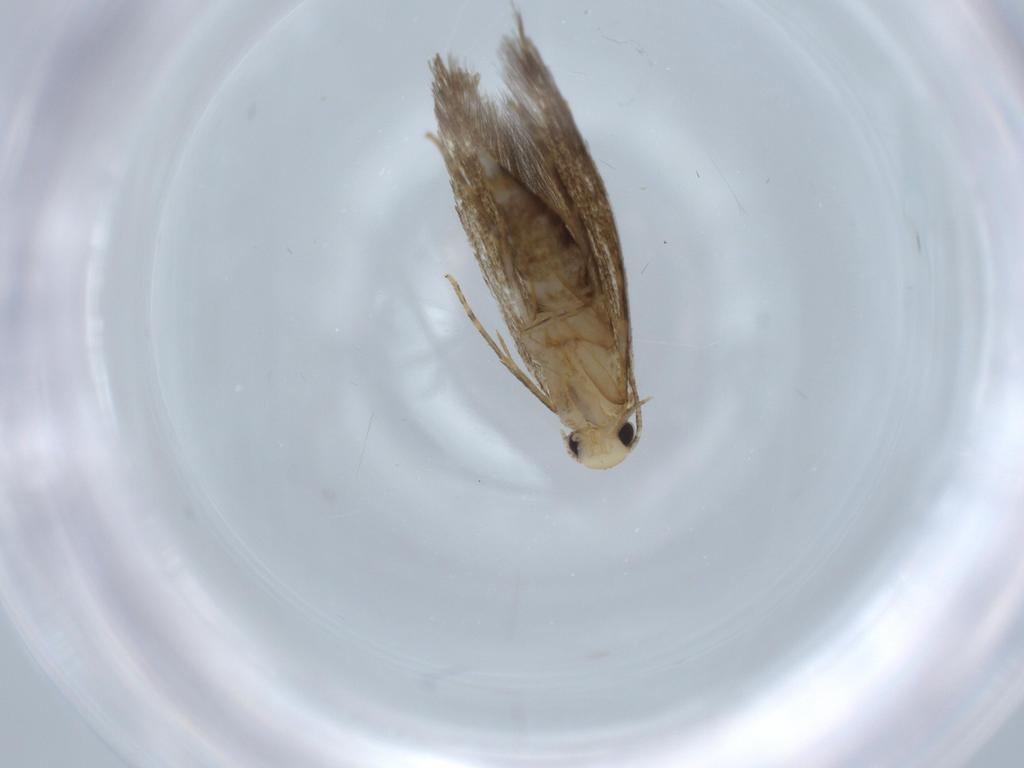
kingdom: Animalia
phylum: Arthropoda
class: Insecta
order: Lepidoptera
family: Tineidae
